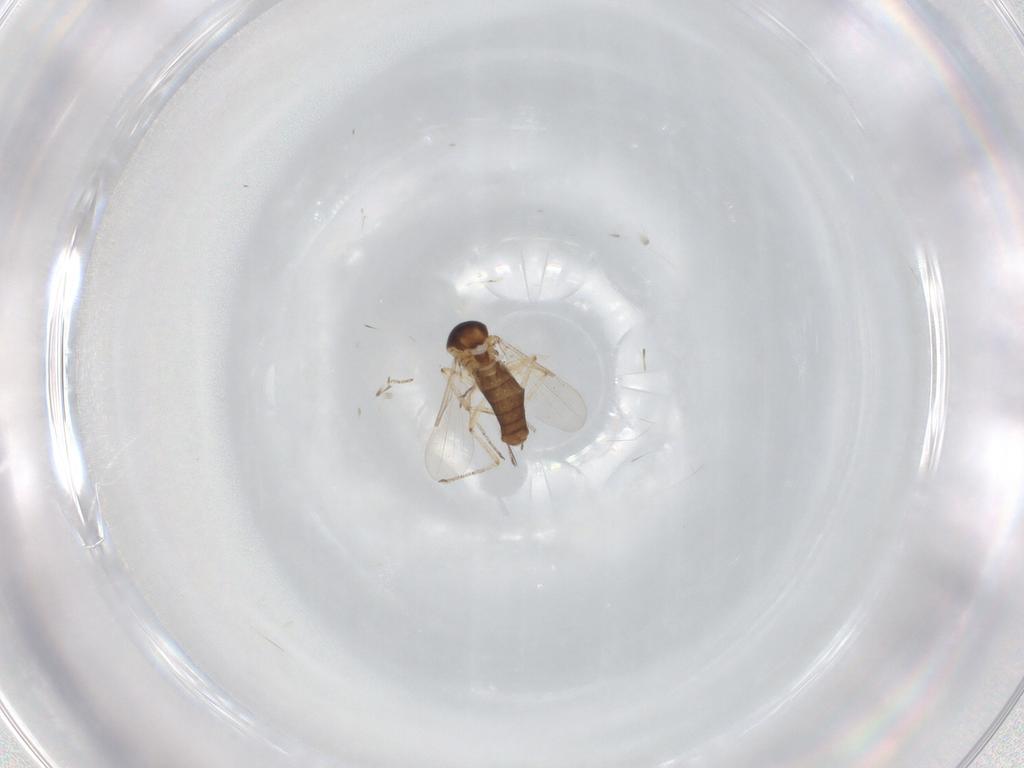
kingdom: Animalia
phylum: Arthropoda
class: Insecta
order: Diptera
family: Ceratopogonidae
